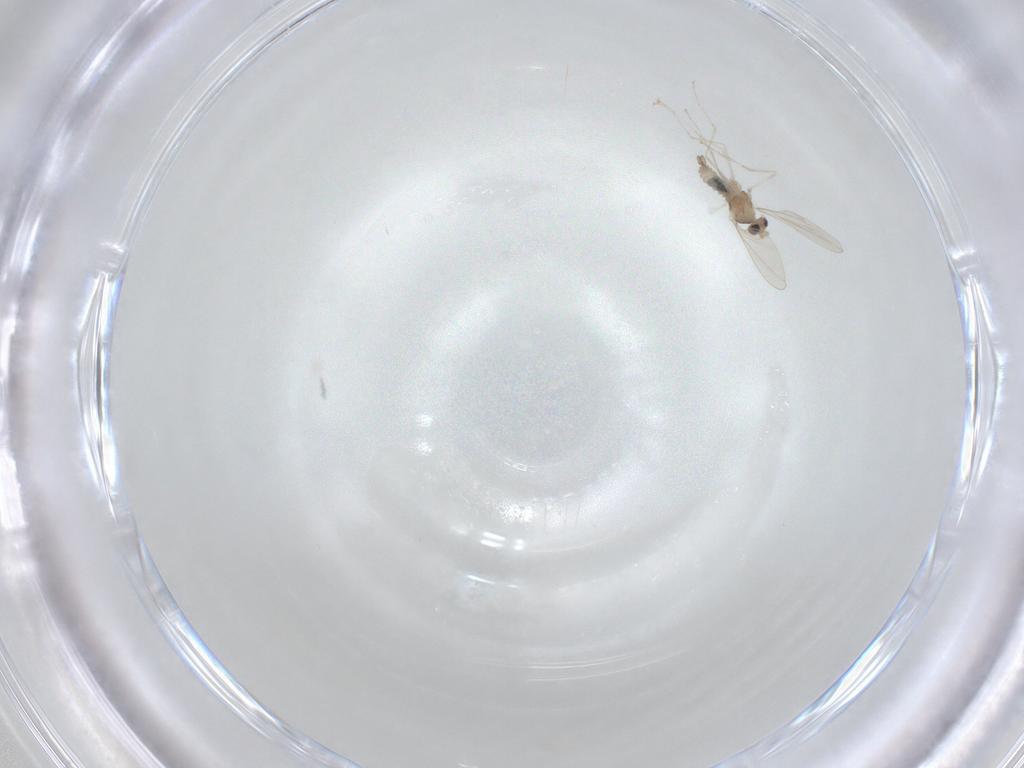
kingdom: Animalia
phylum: Arthropoda
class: Insecta
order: Diptera
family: Cecidomyiidae
